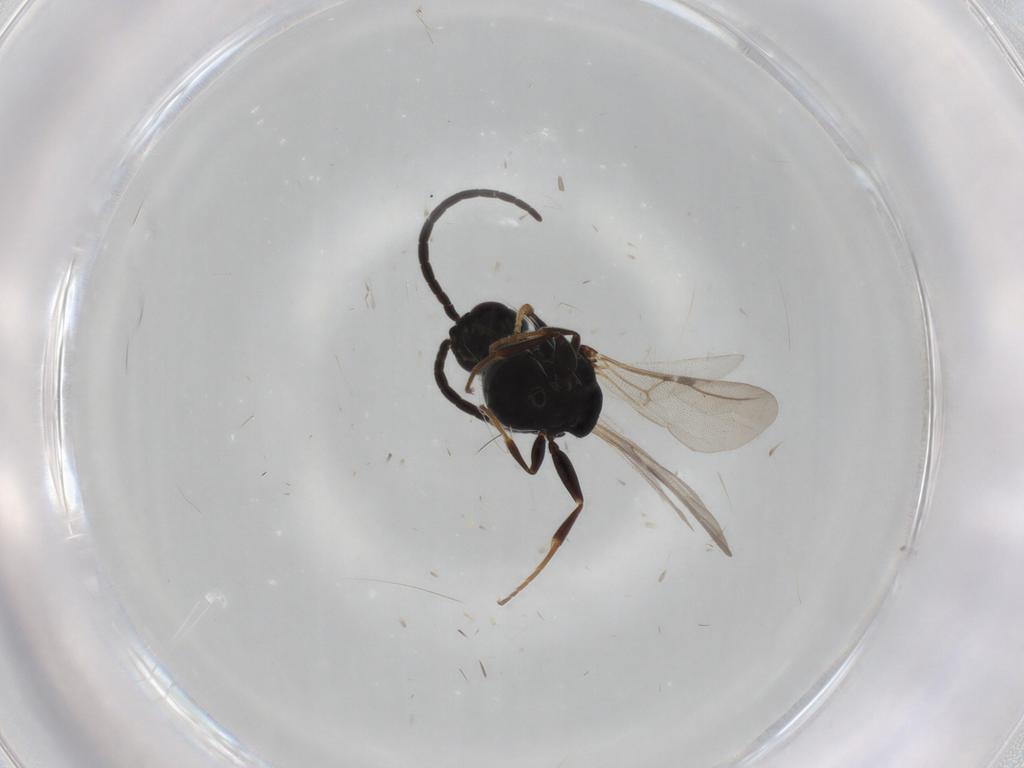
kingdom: Animalia
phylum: Arthropoda
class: Insecta
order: Hymenoptera
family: Bethylidae
